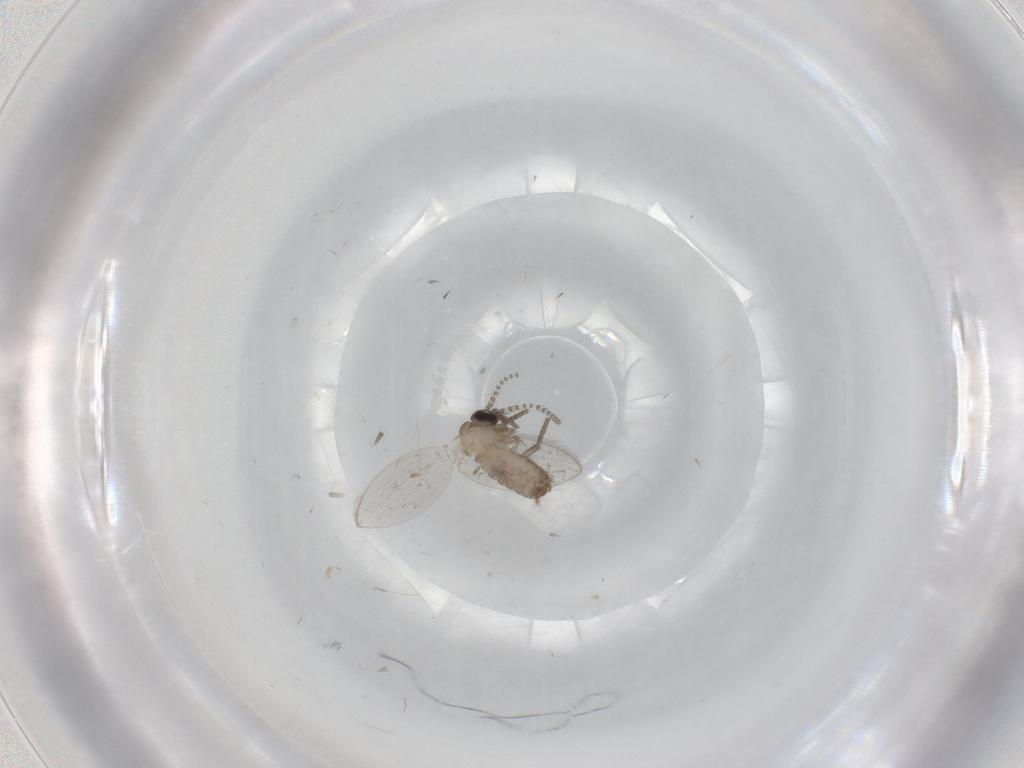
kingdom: Animalia
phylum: Arthropoda
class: Insecta
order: Diptera
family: Psychodidae
